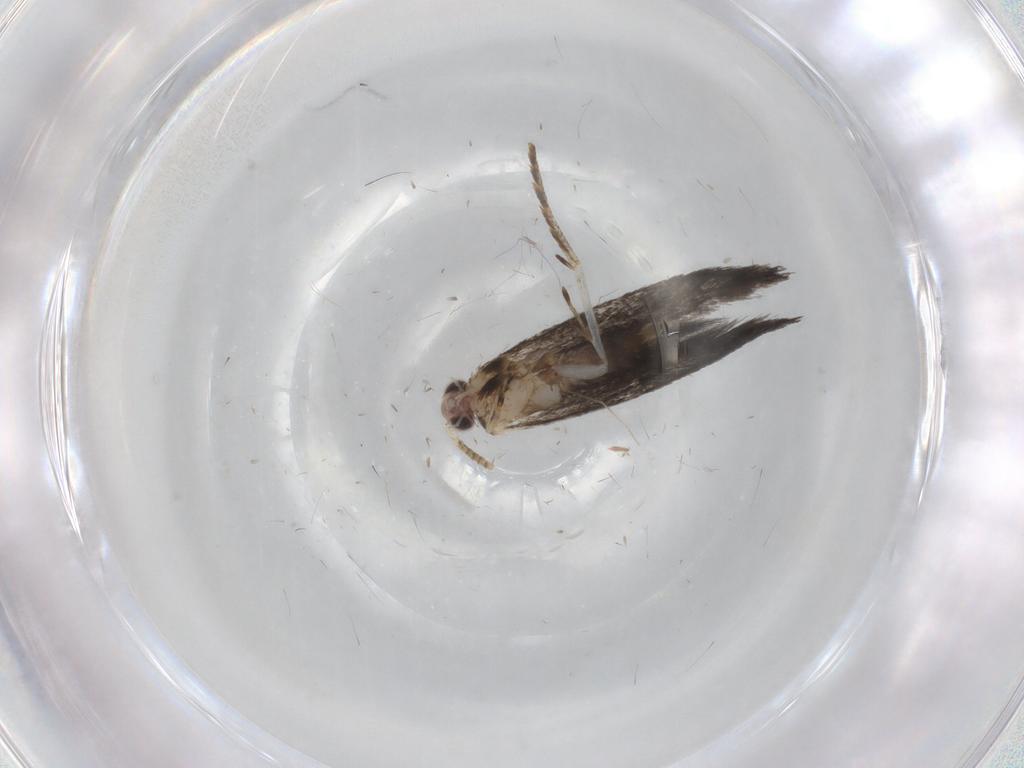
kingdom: Animalia
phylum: Arthropoda
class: Insecta
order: Lepidoptera
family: Tineidae
